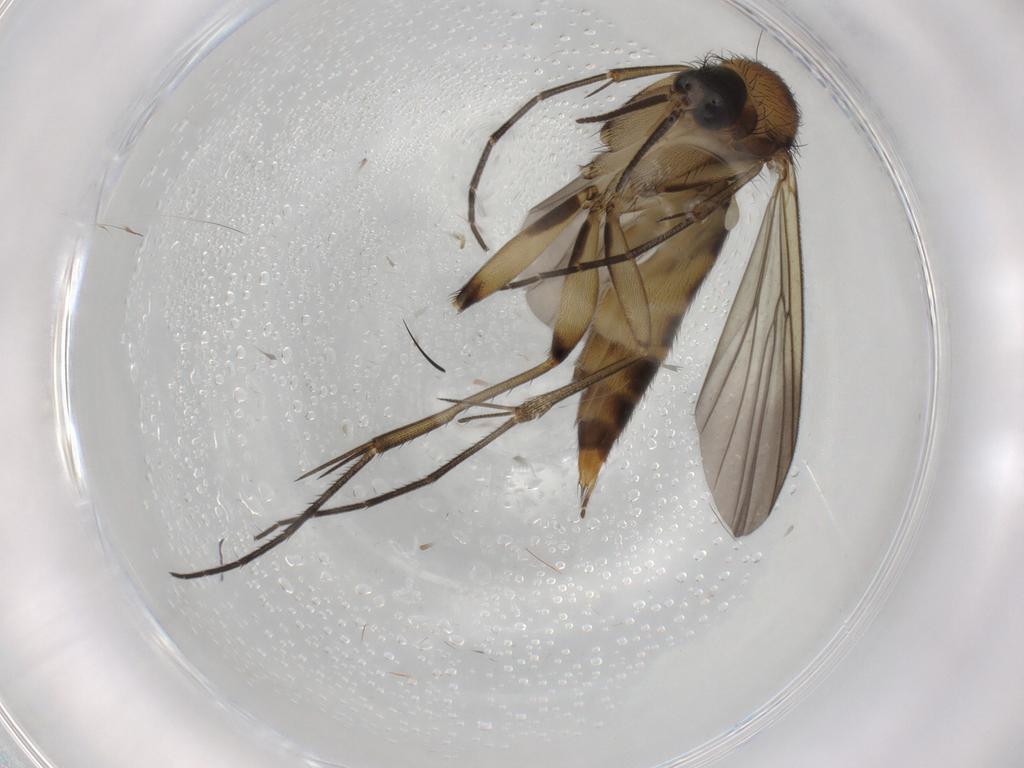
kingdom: Animalia
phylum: Arthropoda
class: Insecta
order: Diptera
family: Mycetophilidae
